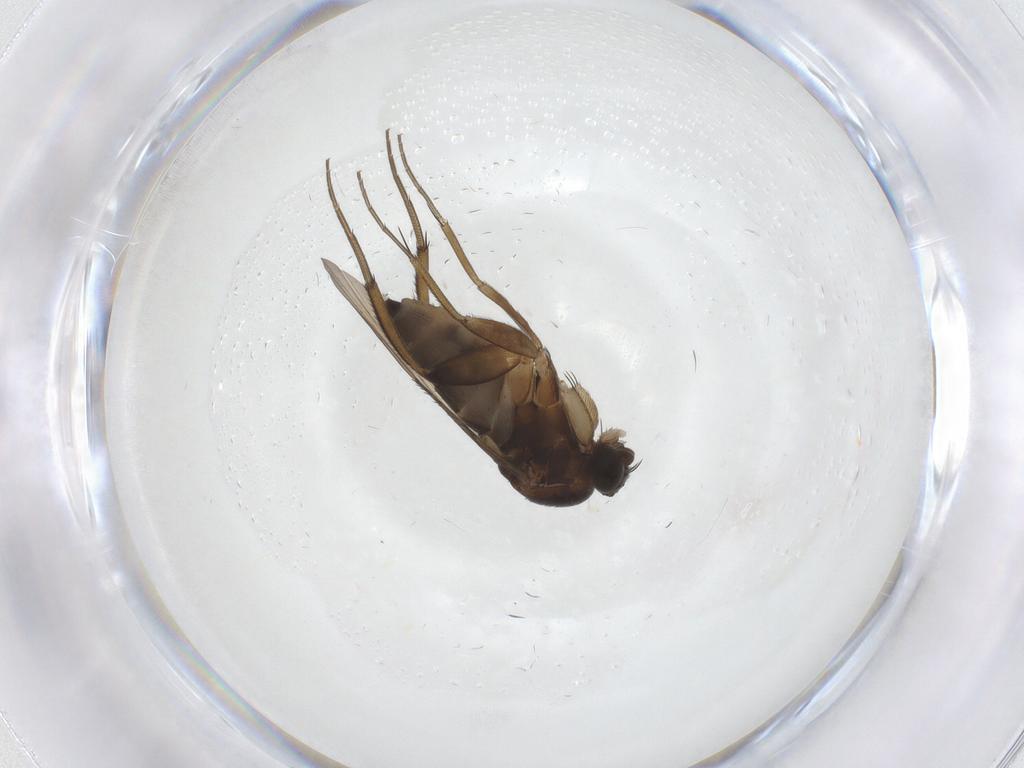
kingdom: Animalia
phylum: Arthropoda
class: Insecta
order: Diptera
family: Phoridae
